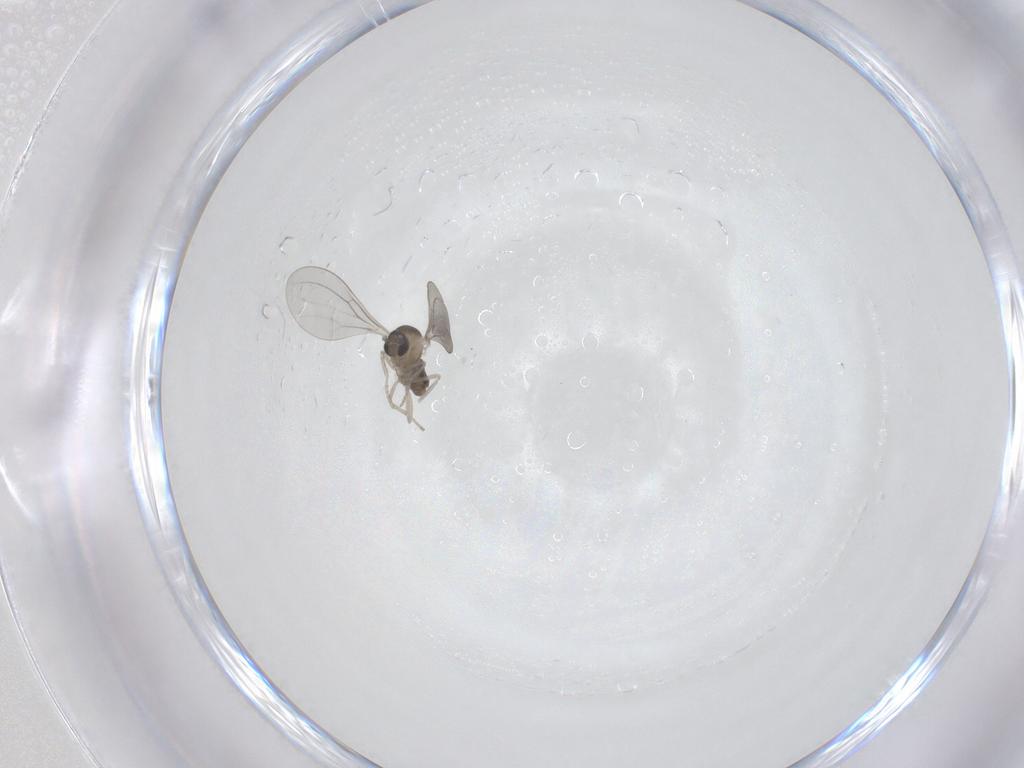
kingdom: Animalia
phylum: Arthropoda
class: Insecta
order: Diptera
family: Cecidomyiidae
